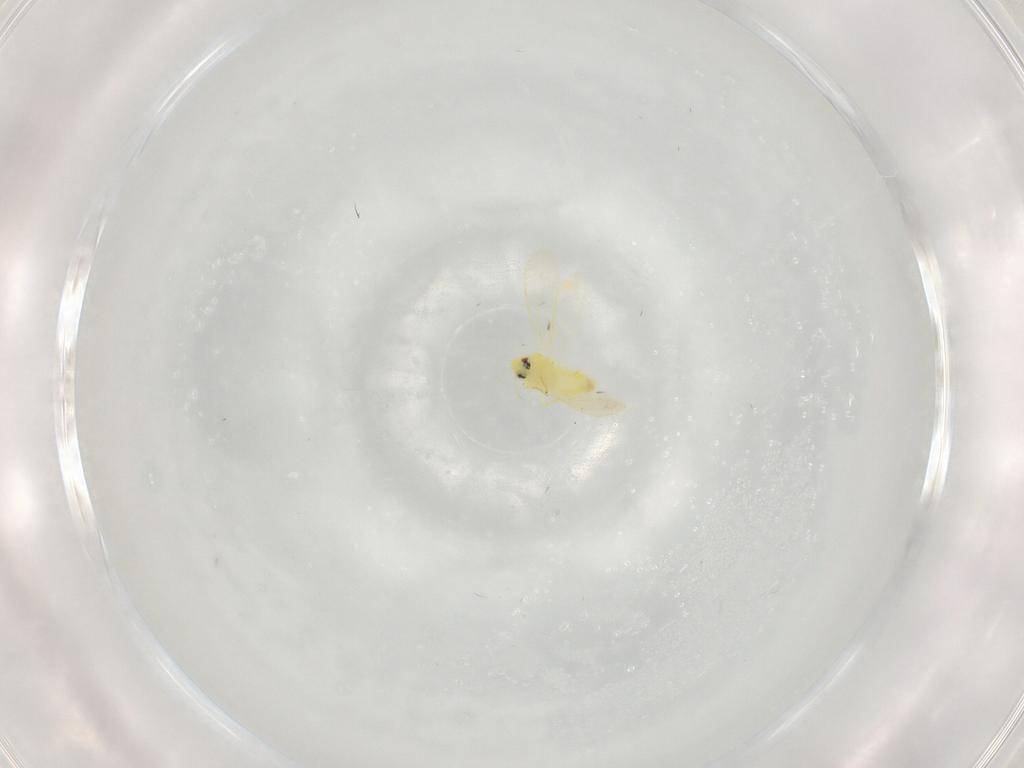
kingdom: Animalia
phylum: Arthropoda
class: Insecta
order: Hemiptera
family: Aleyrodidae
